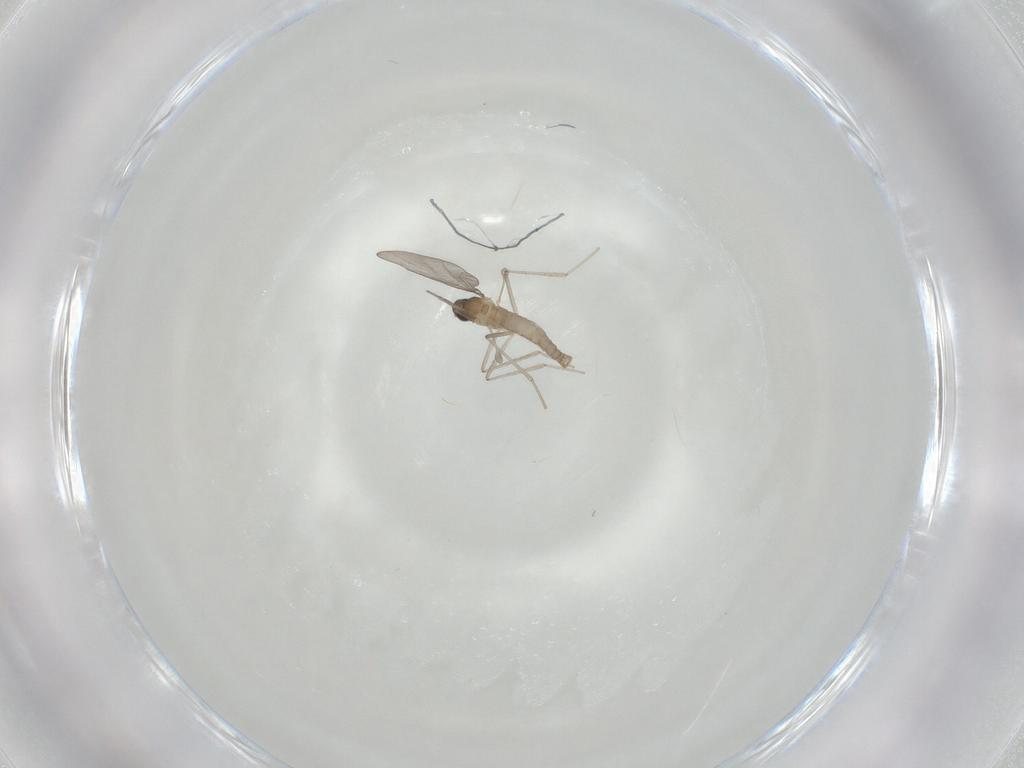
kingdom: Animalia
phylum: Arthropoda
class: Insecta
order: Diptera
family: Cecidomyiidae
